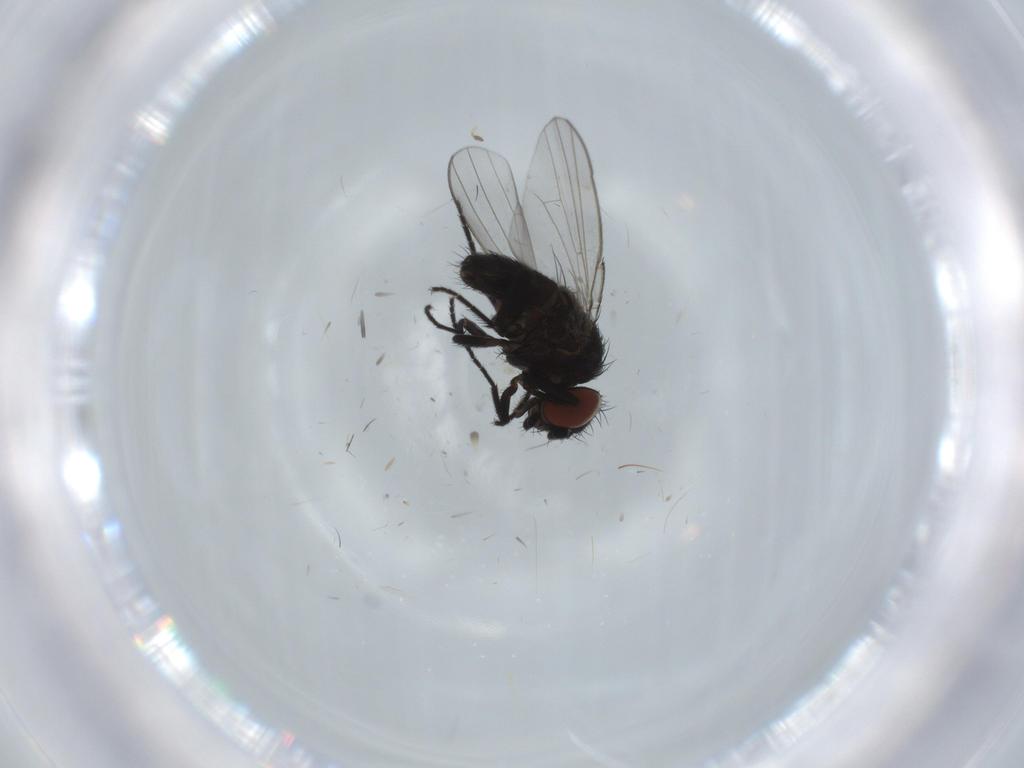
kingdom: Animalia
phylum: Arthropoda
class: Insecta
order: Diptera
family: Milichiidae
